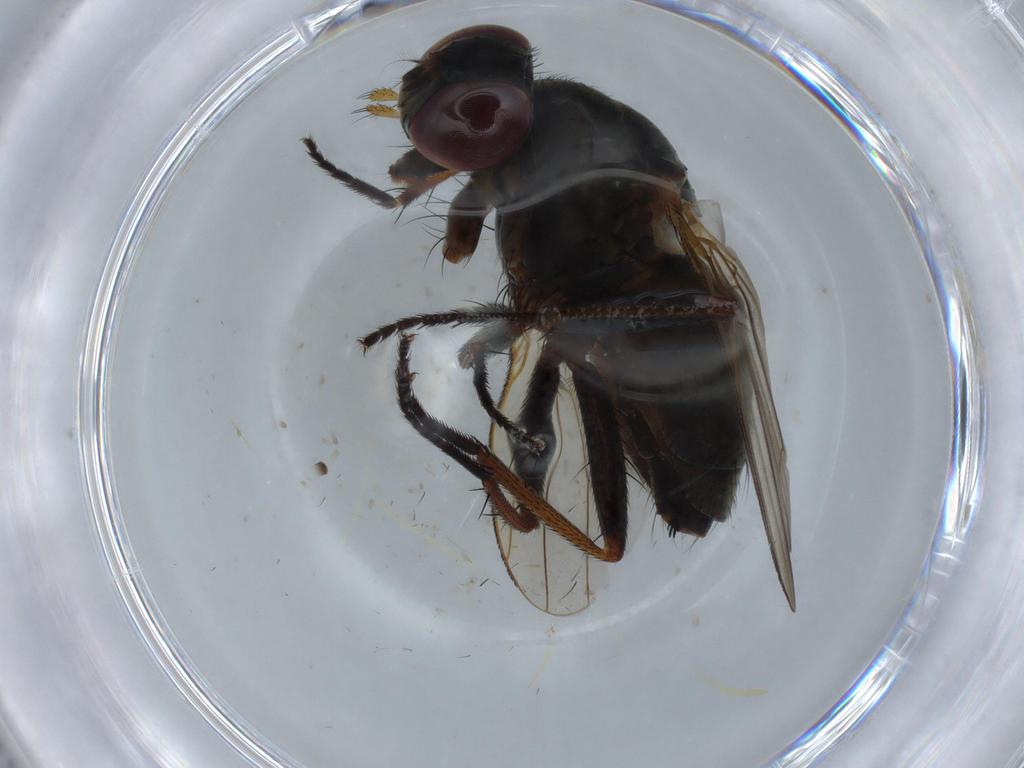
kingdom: Animalia
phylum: Arthropoda
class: Insecta
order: Diptera
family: Muscidae
